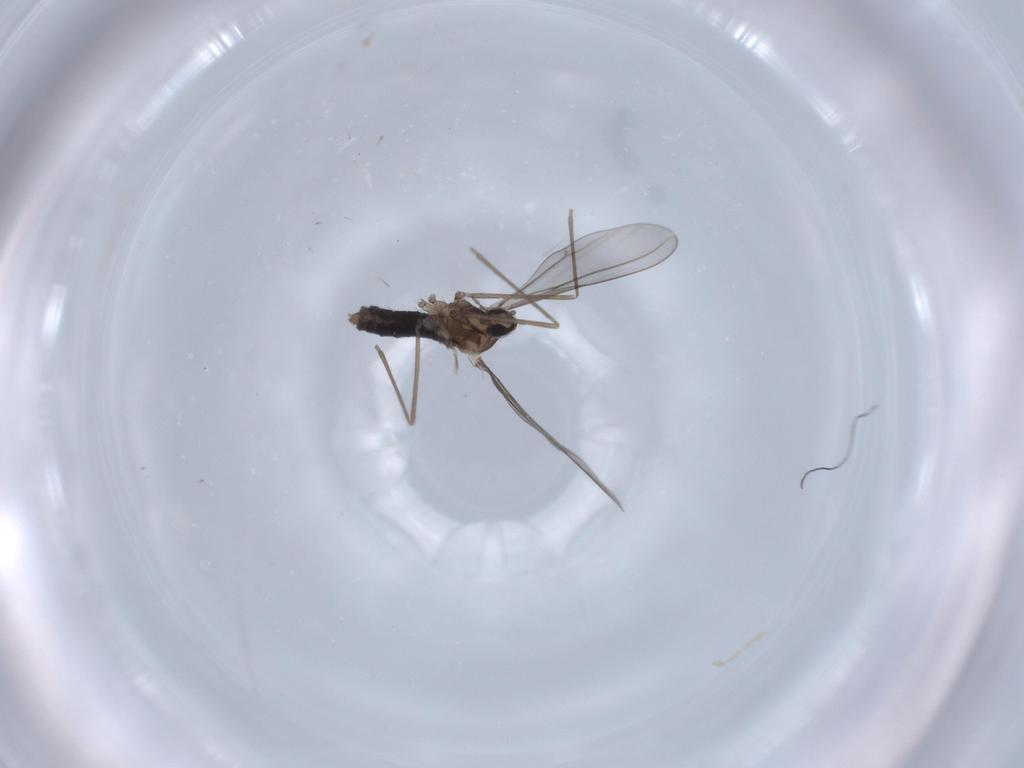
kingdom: Animalia
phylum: Arthropoda
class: Insecta
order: Diptera
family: Cecidomyiidae
